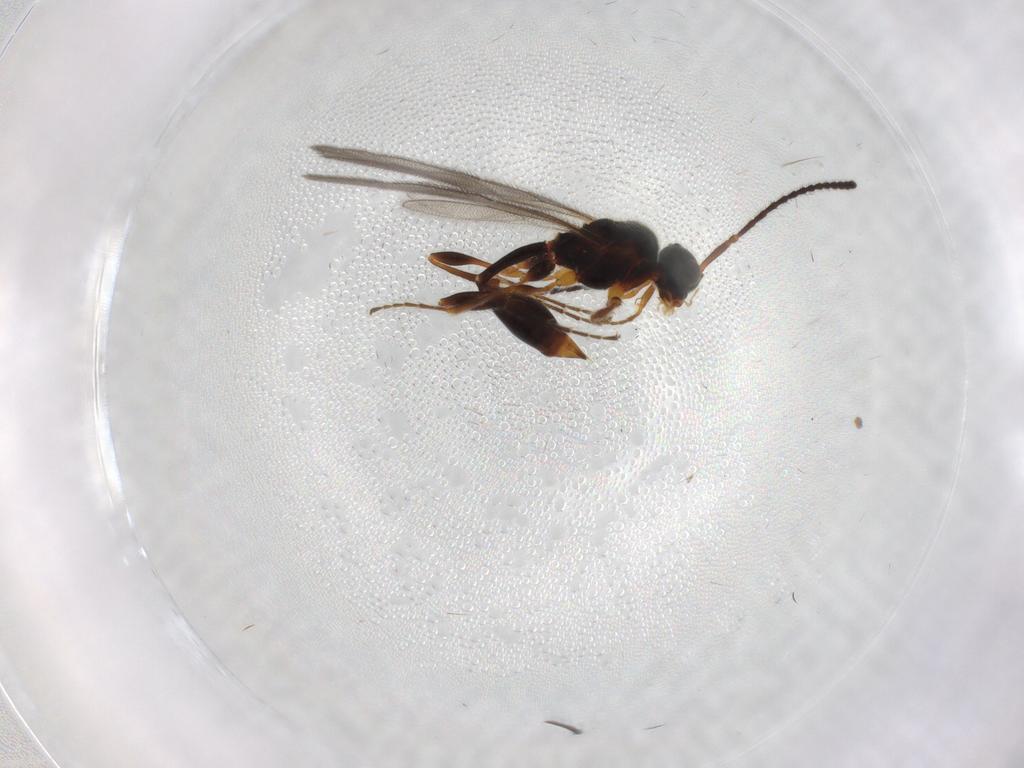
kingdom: Animalia
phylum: Arthropoda
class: Insecta
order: Hymenoptera
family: Diapriidae
